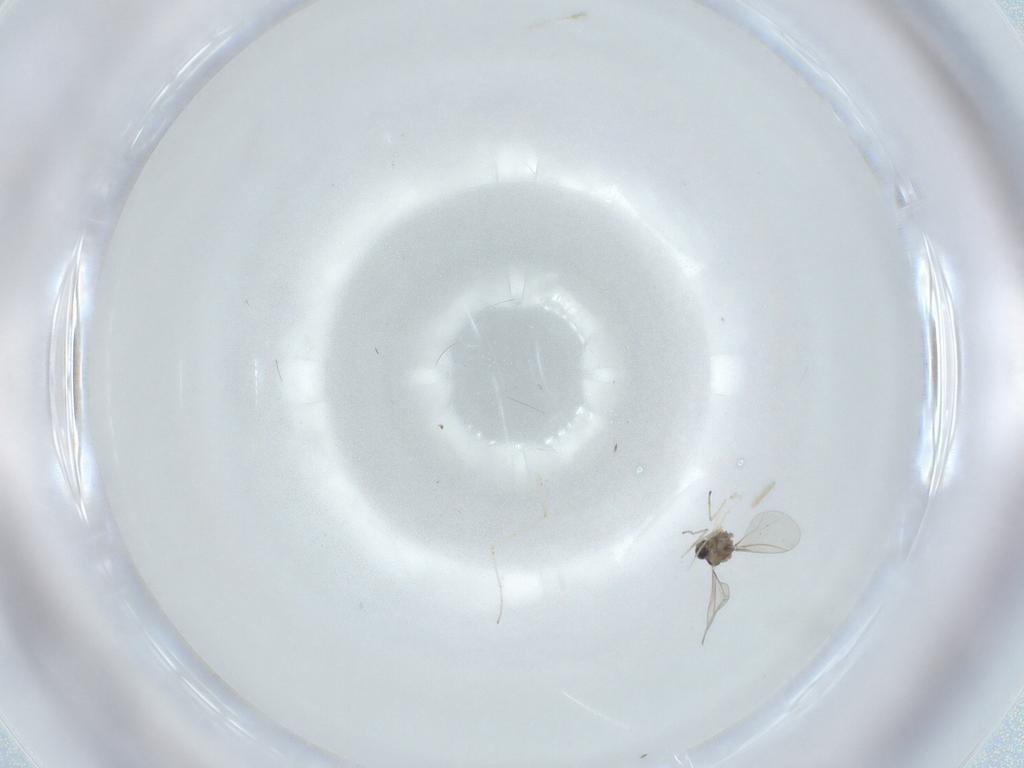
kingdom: Animalia
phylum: Arthropoda
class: Insecta
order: Diptera
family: Cecidomyiidae
